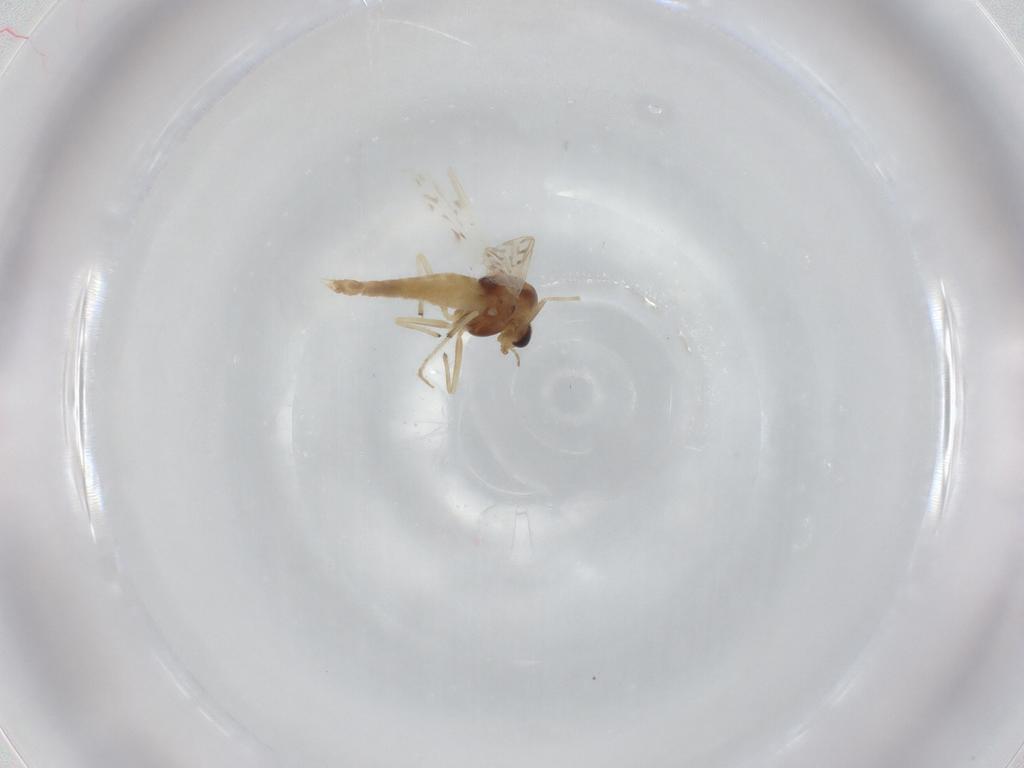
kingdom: Animalia
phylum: Arthropoda
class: Insecta
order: Diptera
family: Chironomidae
